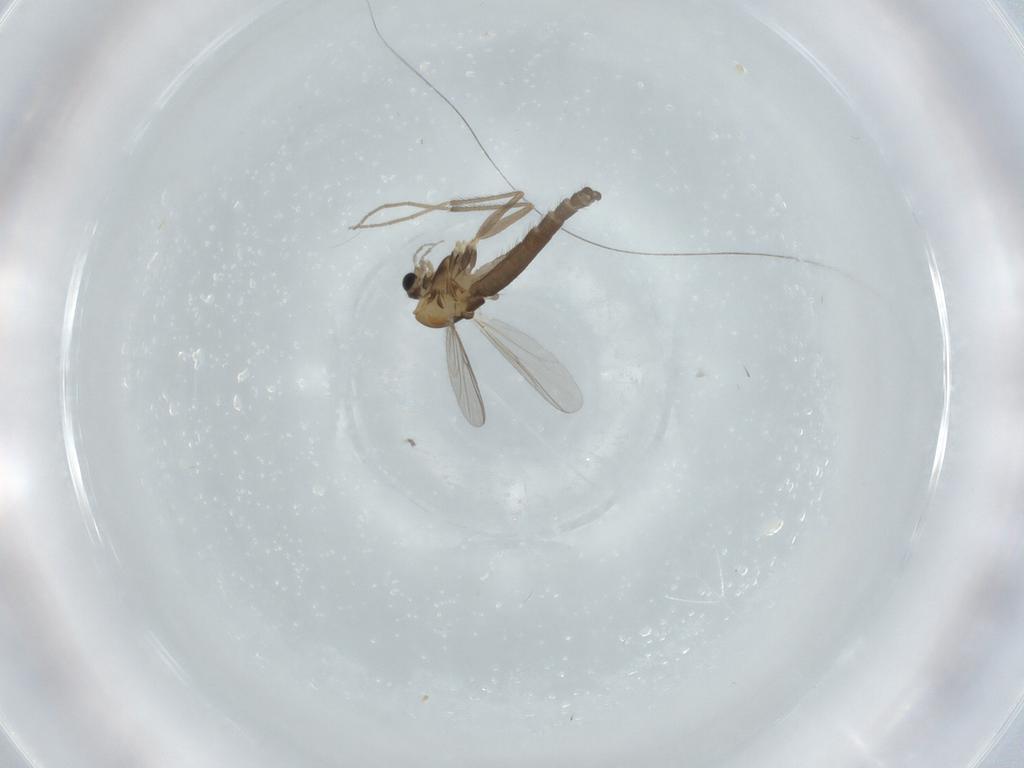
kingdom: Animalia
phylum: Arthropoda
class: Insecta
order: Diptera
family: Chironomidae
